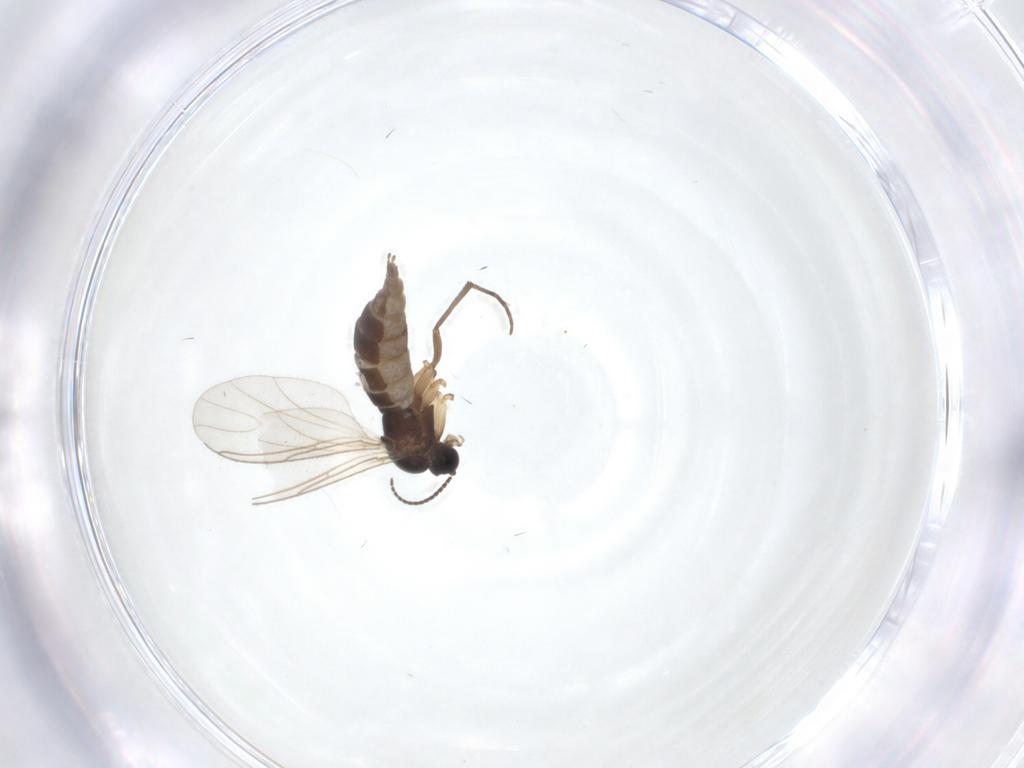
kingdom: Animalia
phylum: Arthropoda
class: Insecta
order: Diptera
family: Sciaridae
